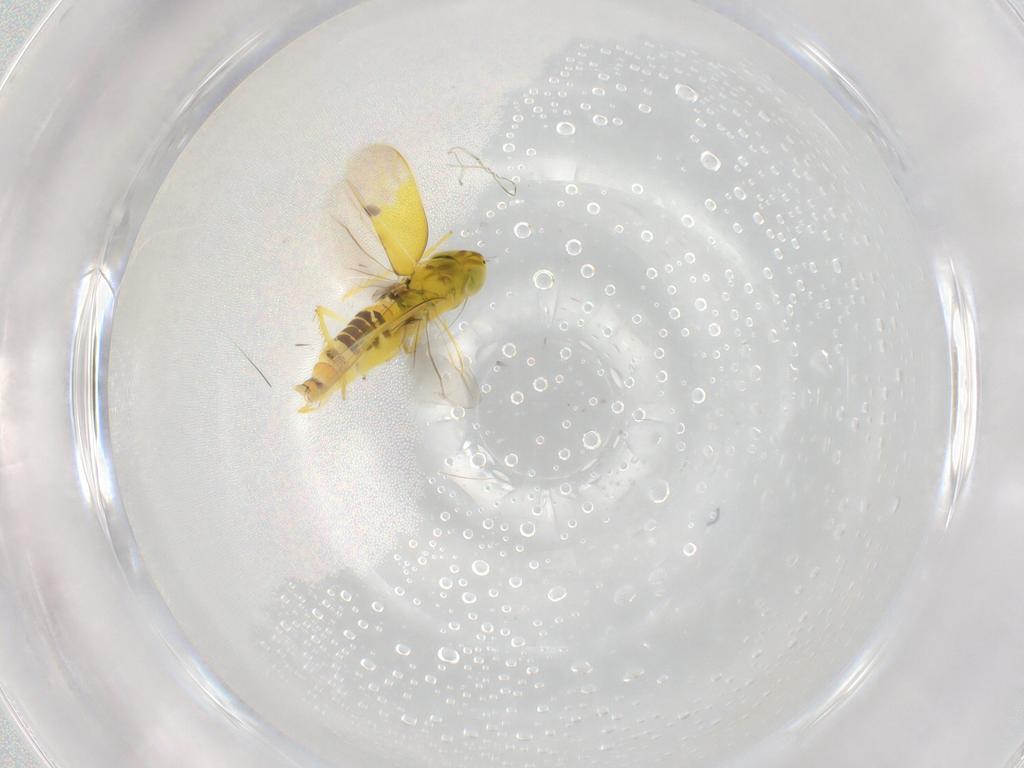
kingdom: Animalia
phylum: Arthropoda
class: Insecta
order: Hemiptera
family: Cicadellidae
